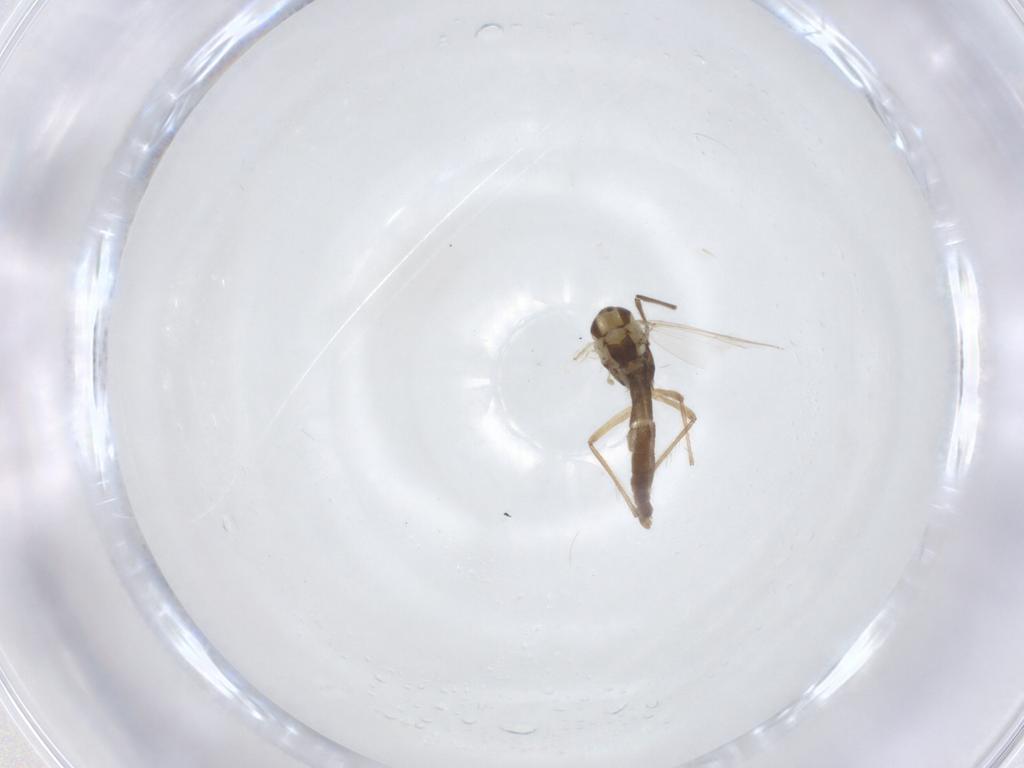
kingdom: Animalia
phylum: Arthropoda
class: Insecta
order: Diptera
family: Chironomidae
